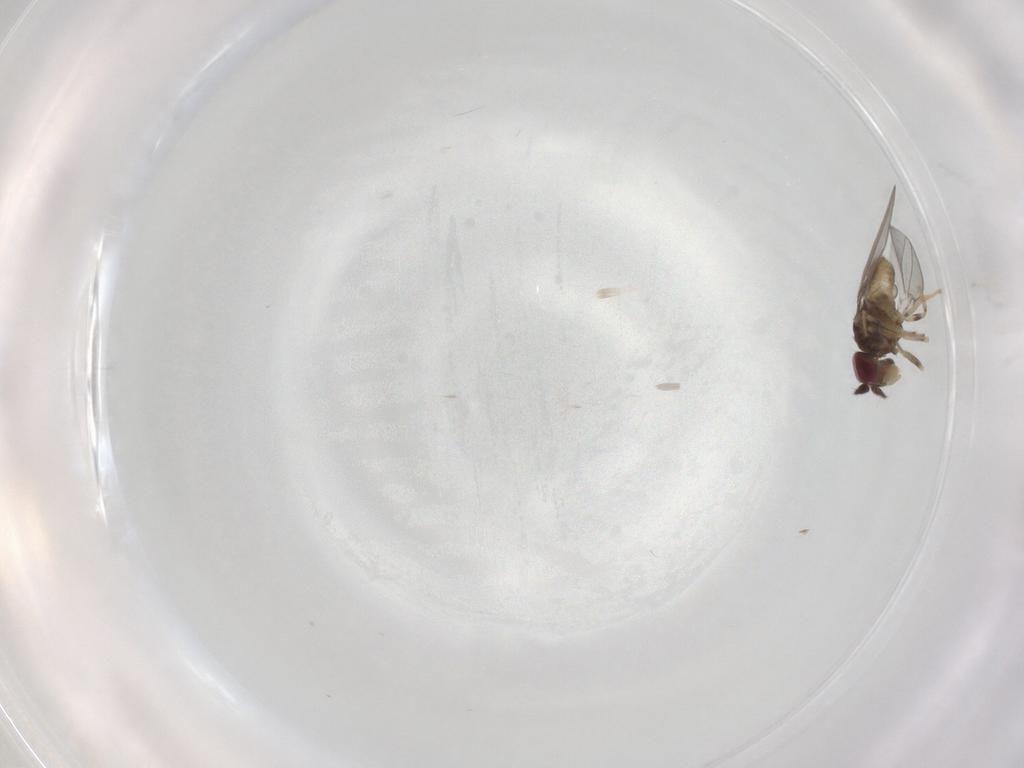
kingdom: Animalia
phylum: Arthropoda
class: Insecta
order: Diptera
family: Asteiidae
